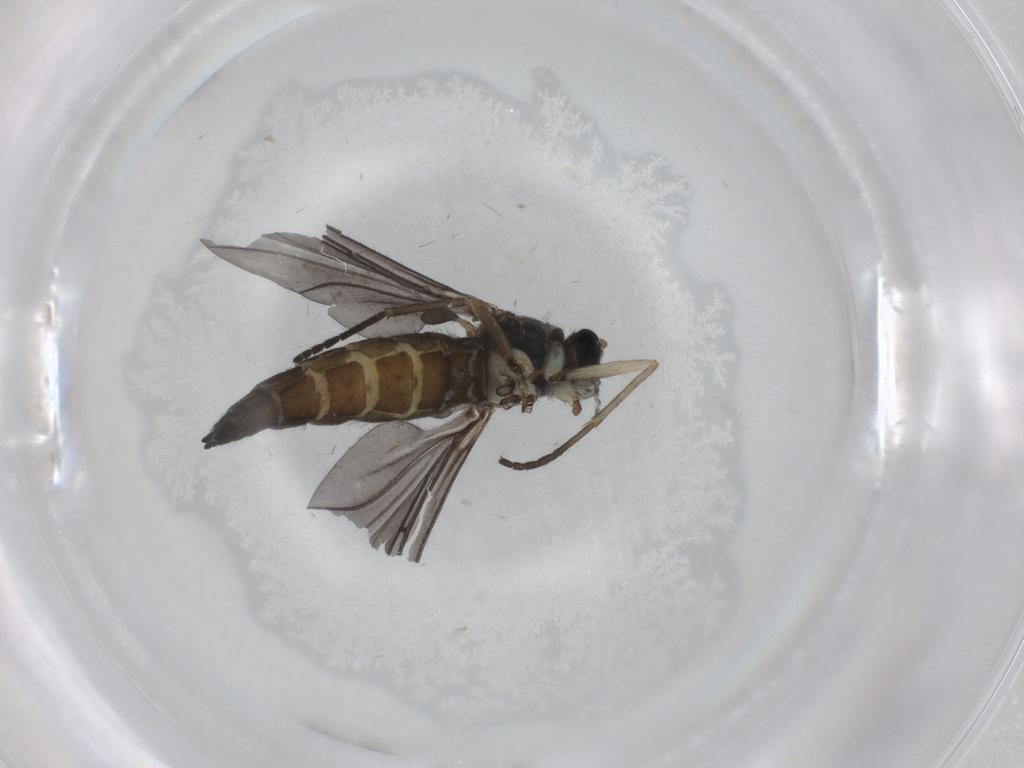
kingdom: Animalia
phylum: Arthropoda
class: Insecta
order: Diptera
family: Sciaridae
